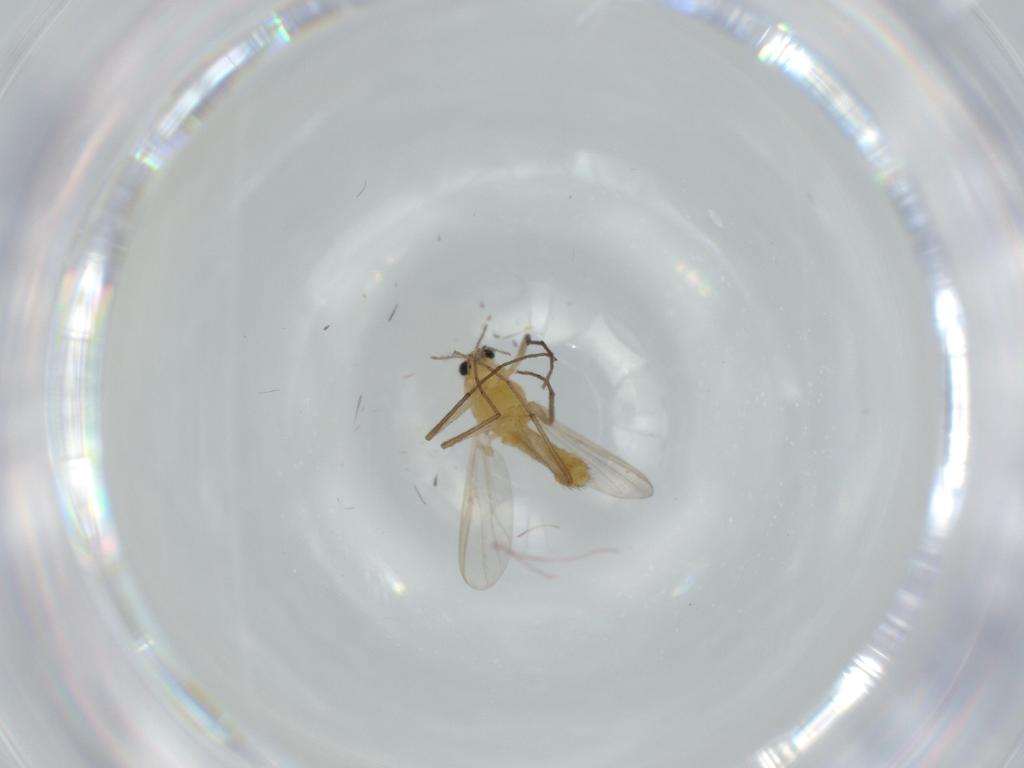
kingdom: Animalia
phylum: Arthropoda
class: Insecta
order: Diptera
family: Chironomidae
